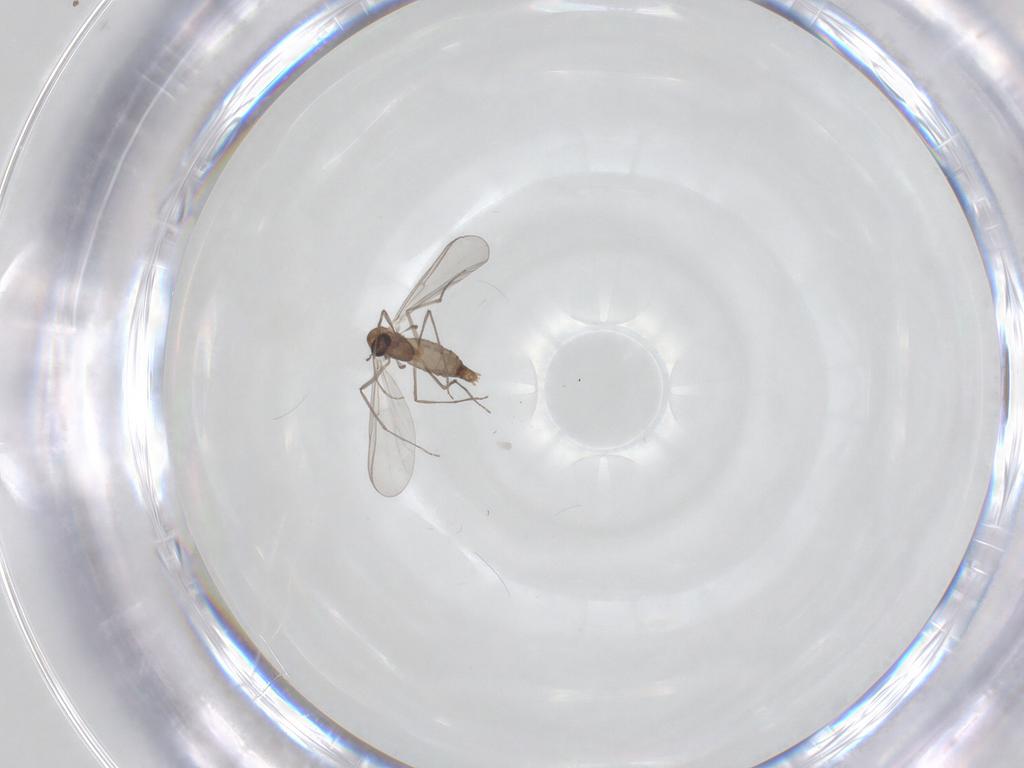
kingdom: Animalia
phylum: Arthropoda
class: Insecta
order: Diptera
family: Chironomidae
